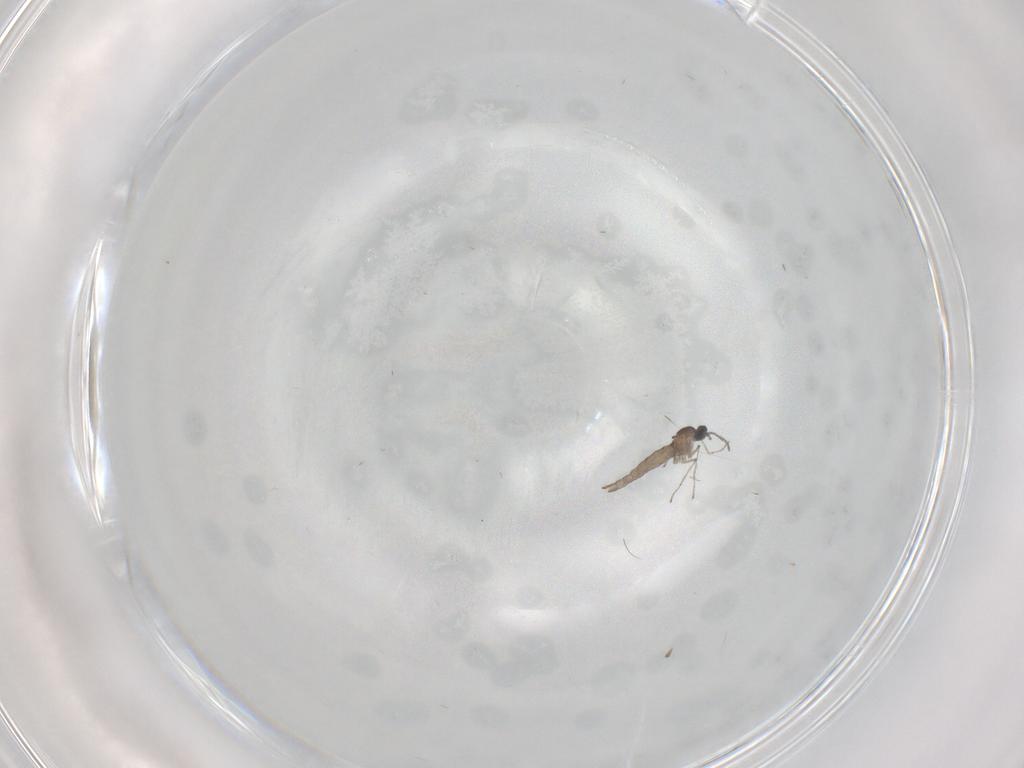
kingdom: Animalia
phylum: Arthropoda
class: Insecta
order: Diptera
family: Cecidomyiidae
